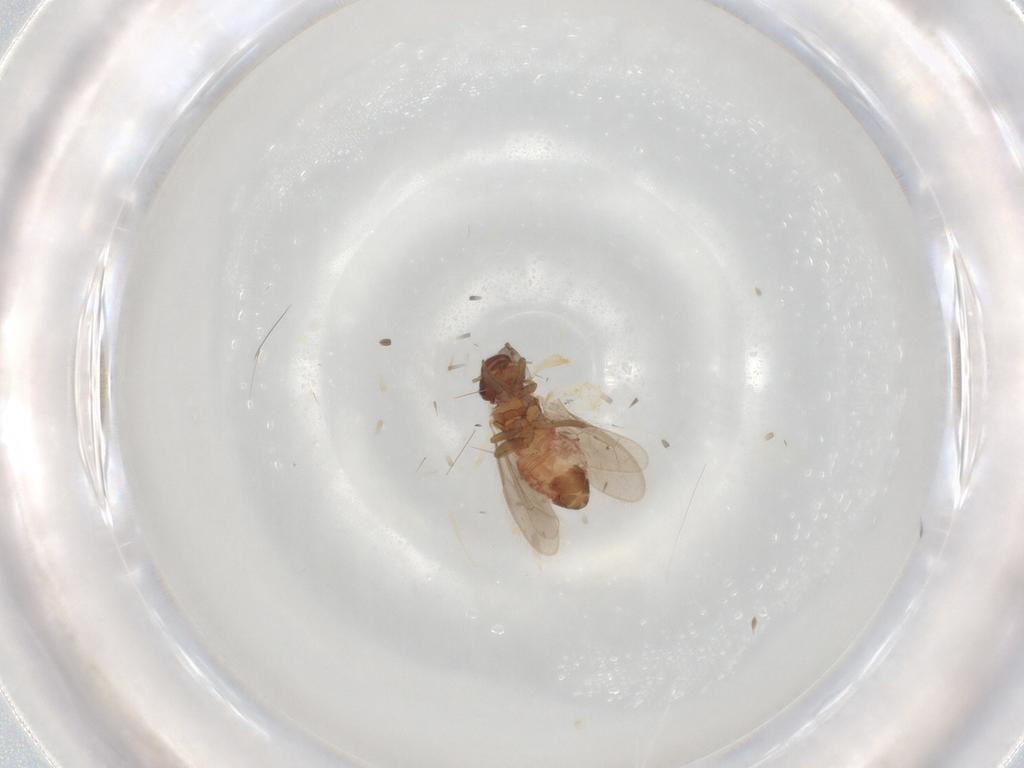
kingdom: Animalia
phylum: Arthropoda
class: Insecta
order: Psocodea
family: Archipsocidae
